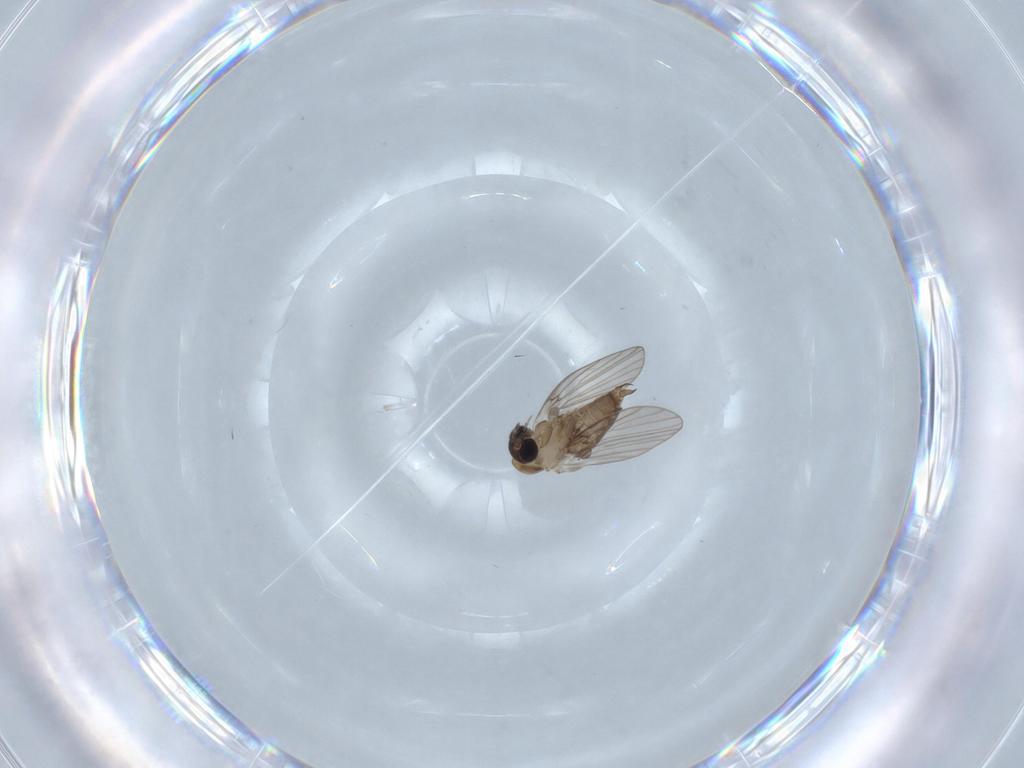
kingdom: Animalia
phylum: Arthropoda
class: Insecta
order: Diptera
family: Psychodidae
